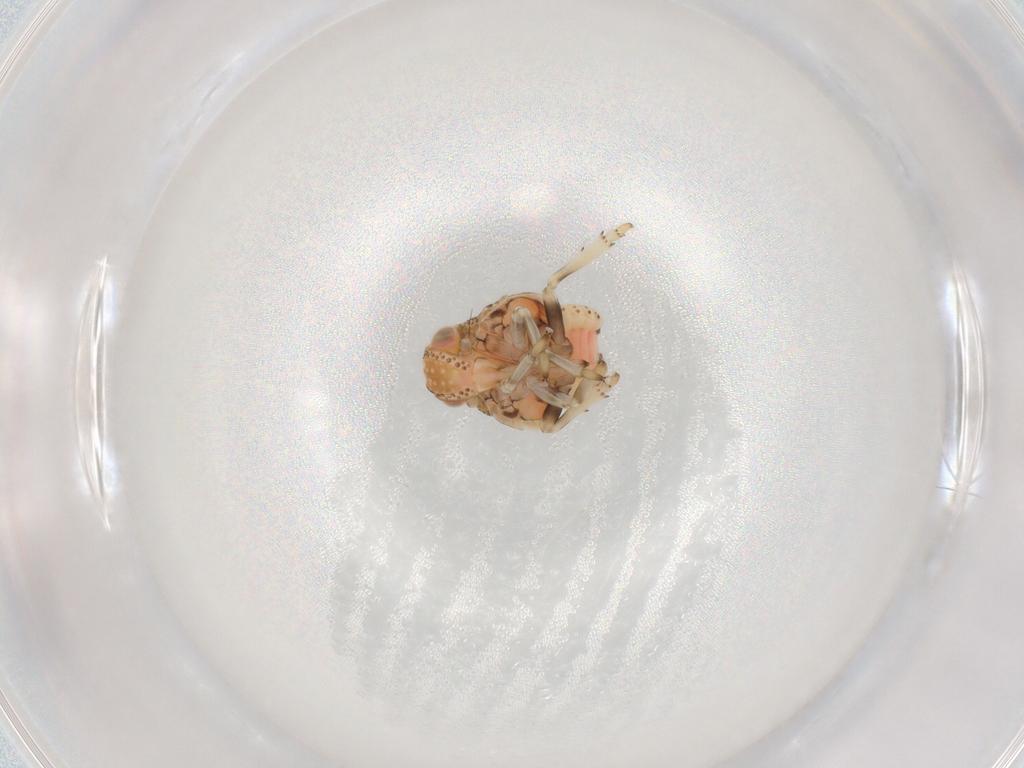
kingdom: Animalia
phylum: Arthropoda
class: Insecta
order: Hemiptera
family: Nogodinidae
